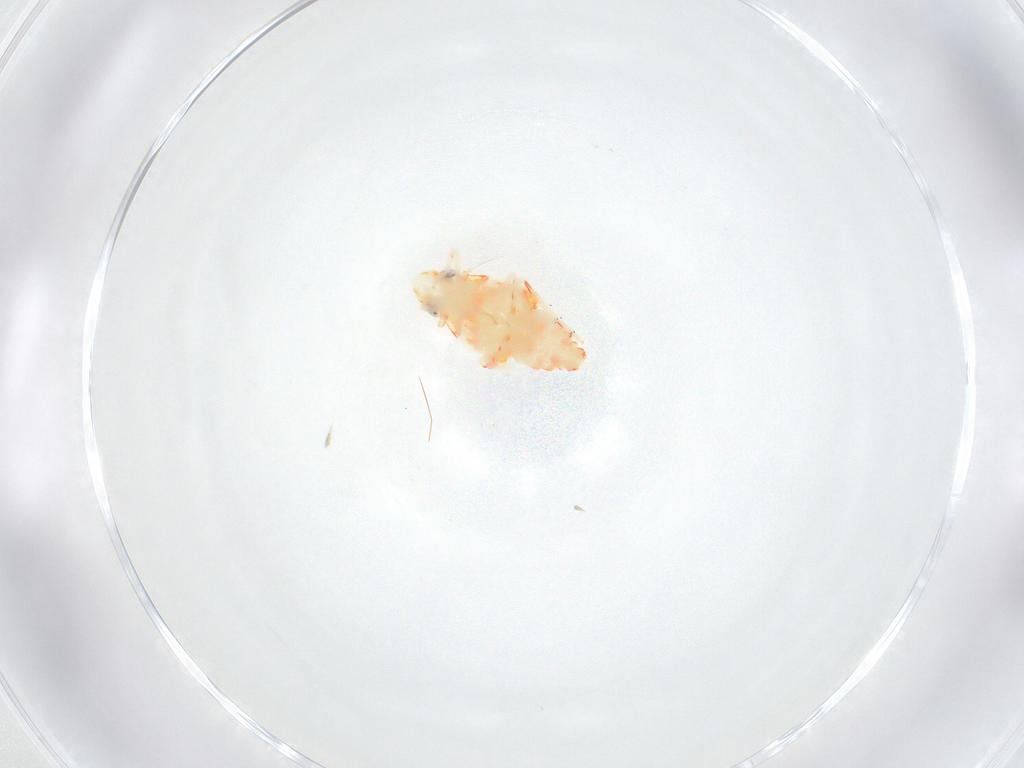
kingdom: Animalia
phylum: Arthropoda
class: Insecta
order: Hemiptera
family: Tropiduchidae
